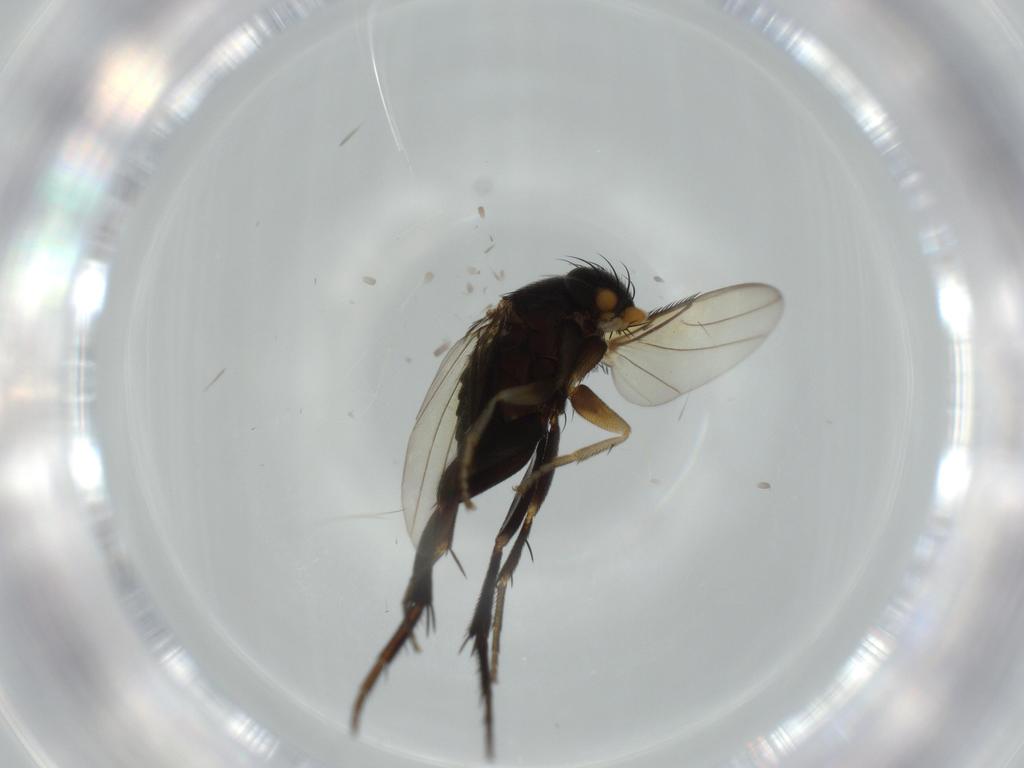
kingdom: Animalia
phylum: Arthropoda
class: Insecta
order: Diptera
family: Phoridae
